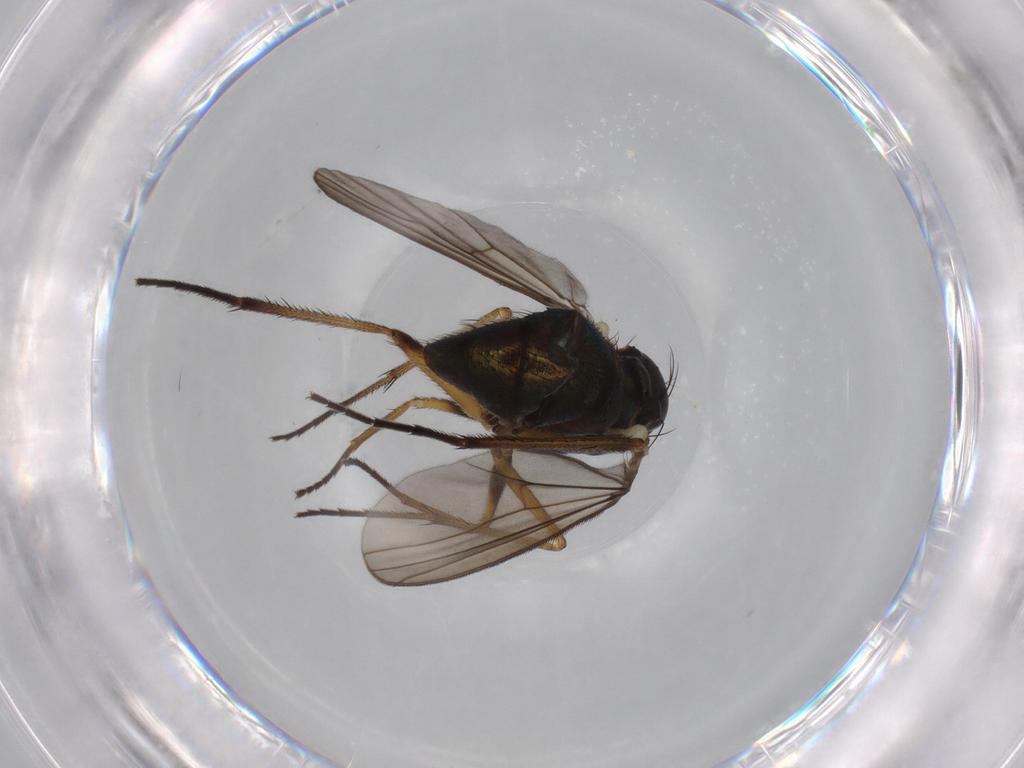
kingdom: Animalia
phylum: Arthropoda
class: Insecta
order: Diptera
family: Dolichopodidae
